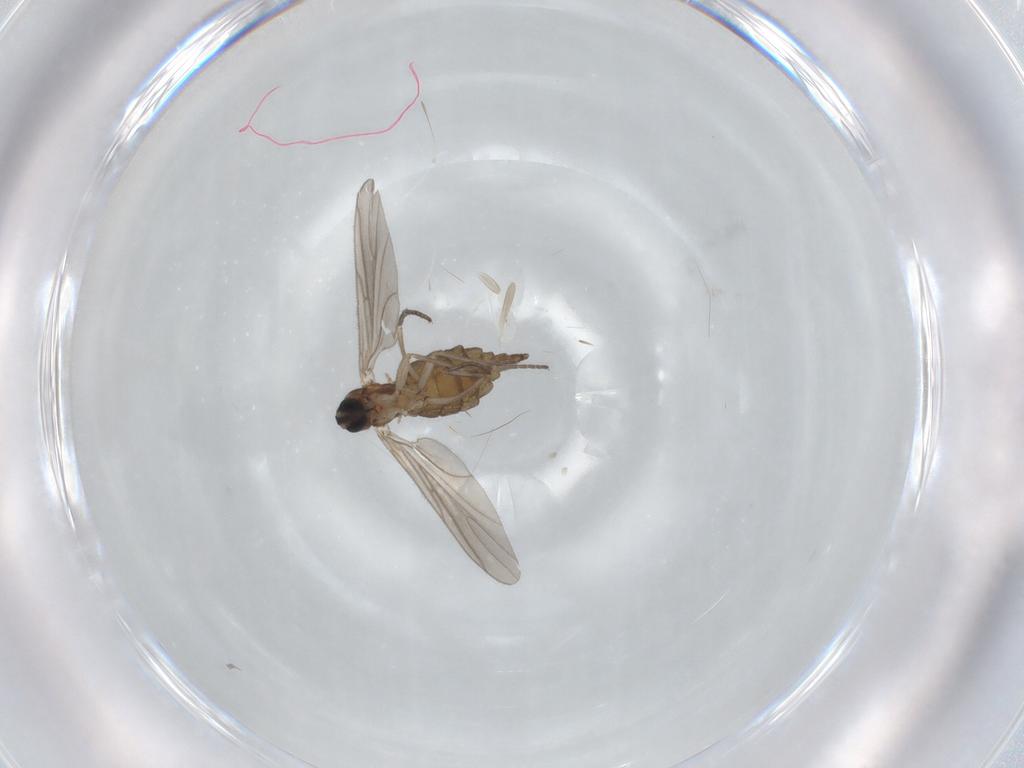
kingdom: Animalia
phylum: Arthropoda
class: Insecta
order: Diptera
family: Sciaridae
